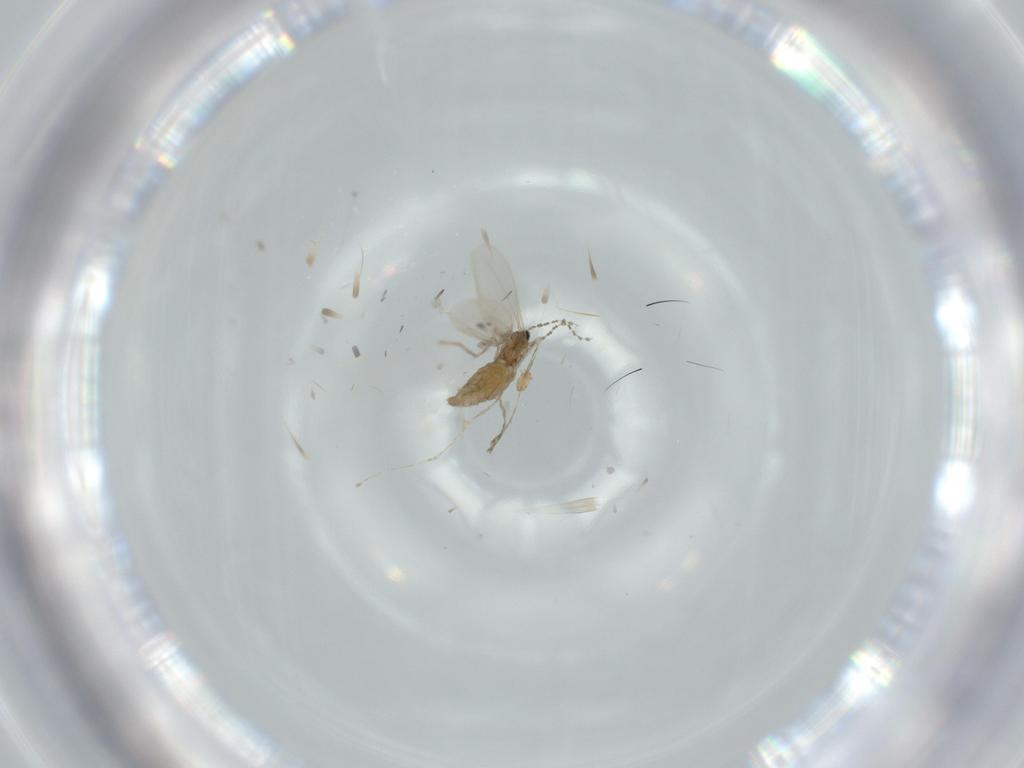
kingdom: Animalia
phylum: Arthropoda
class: Insecta
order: Diptera
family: Cecidomyiidae
